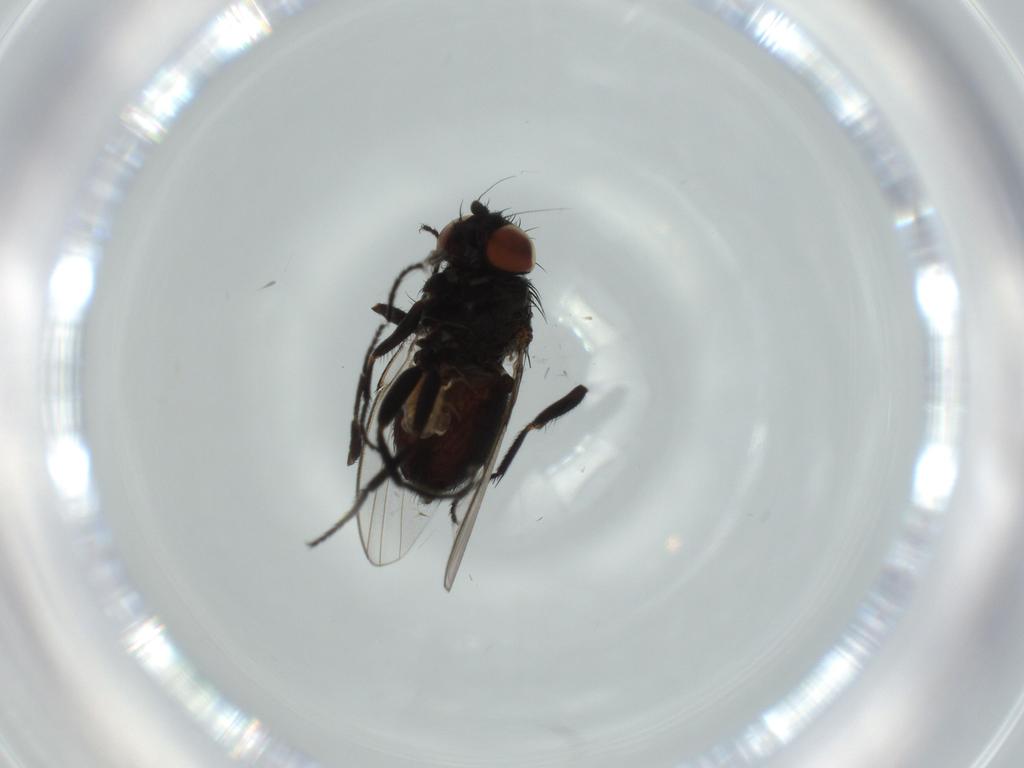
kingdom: Animalia
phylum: Arthropoda
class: Insecta
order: Diptera
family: Milichiidae
